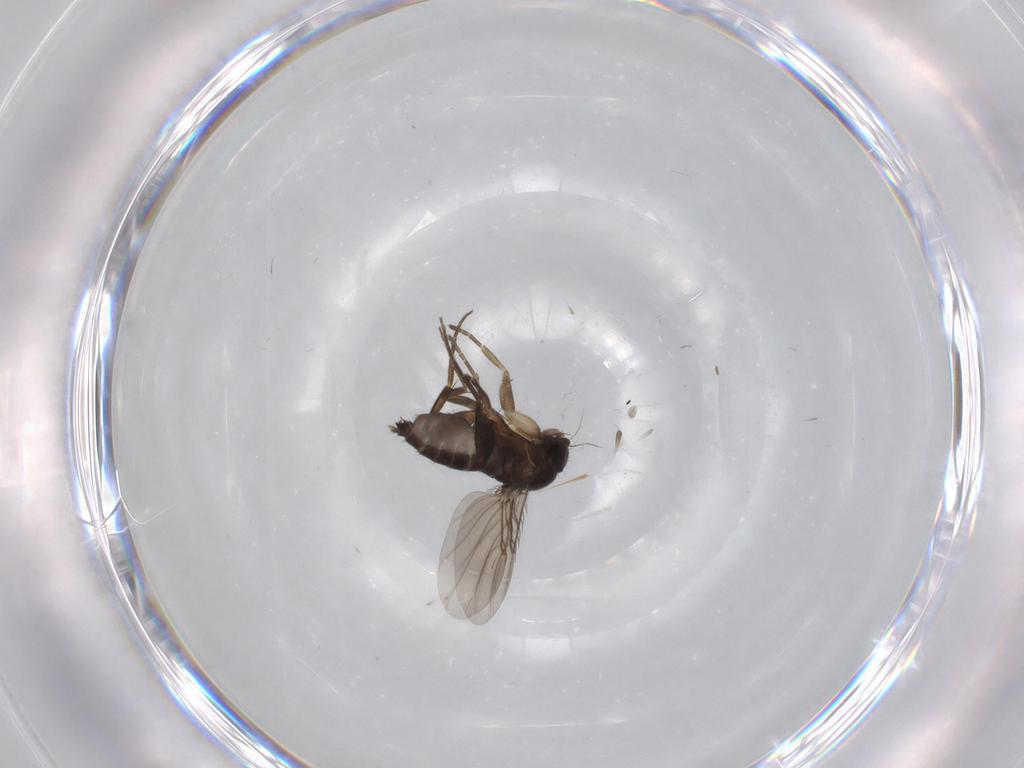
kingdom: Animalia
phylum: Arthropoda
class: Insecta
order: Diptera
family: Phoridae
